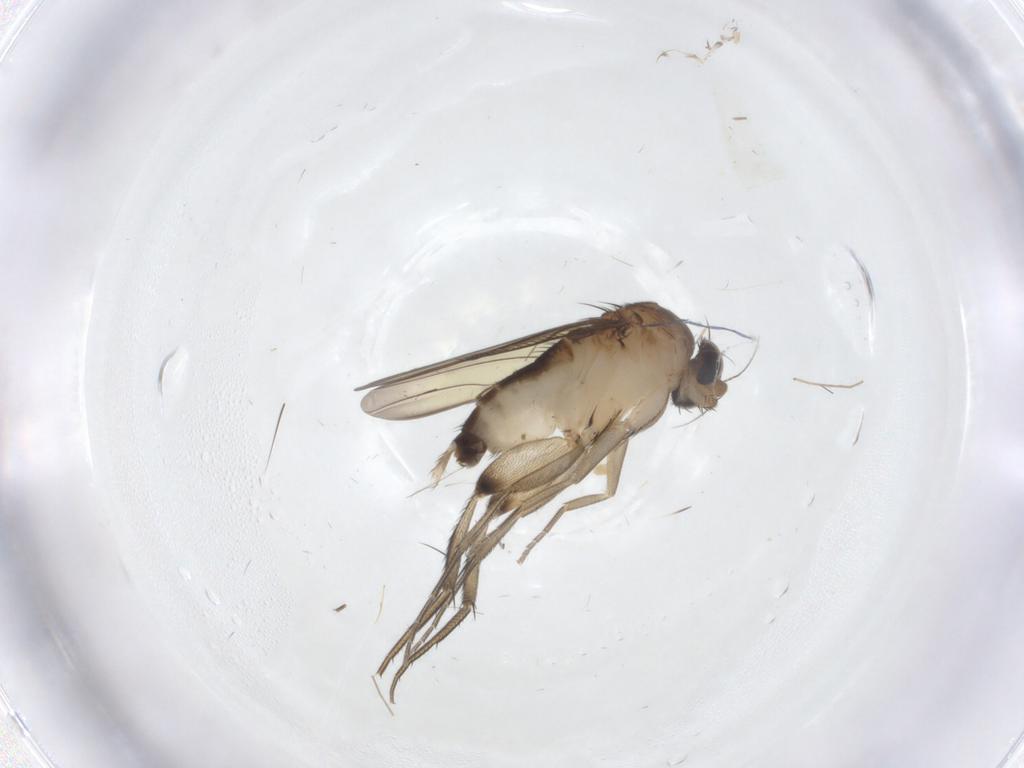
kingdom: Animalia
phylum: Arthropoda
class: Insecta
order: Diptera
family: Phoridae
